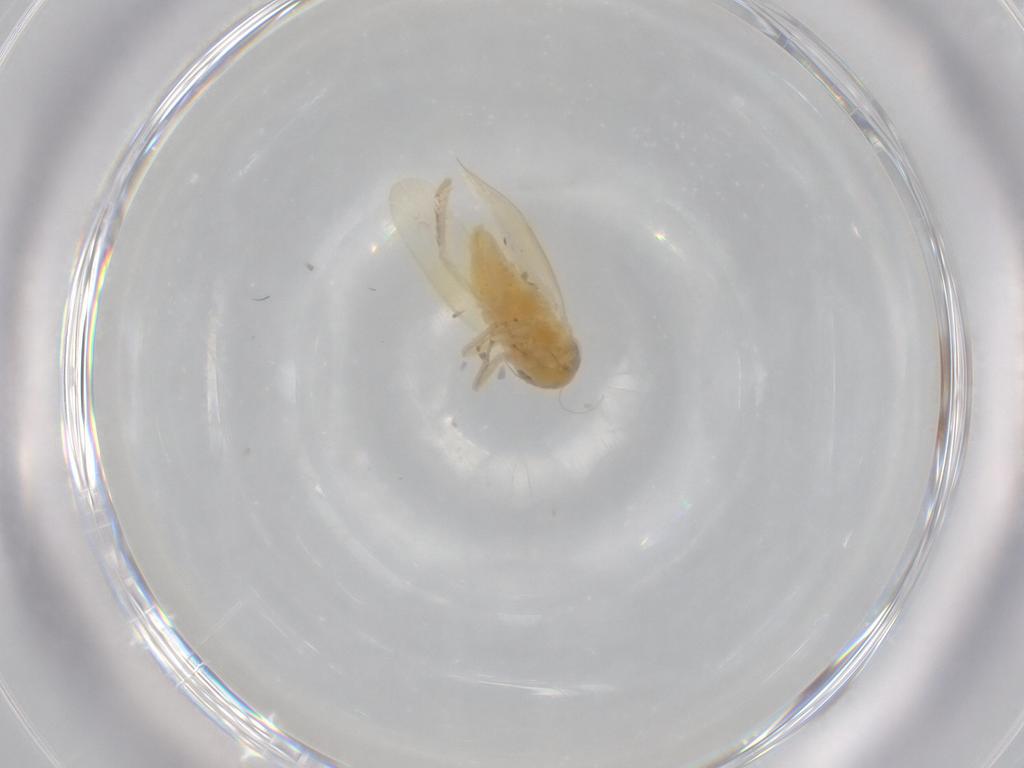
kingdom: Animalia
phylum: Arthropoda
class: Insecta
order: Hemiptera
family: Cicadellidae
